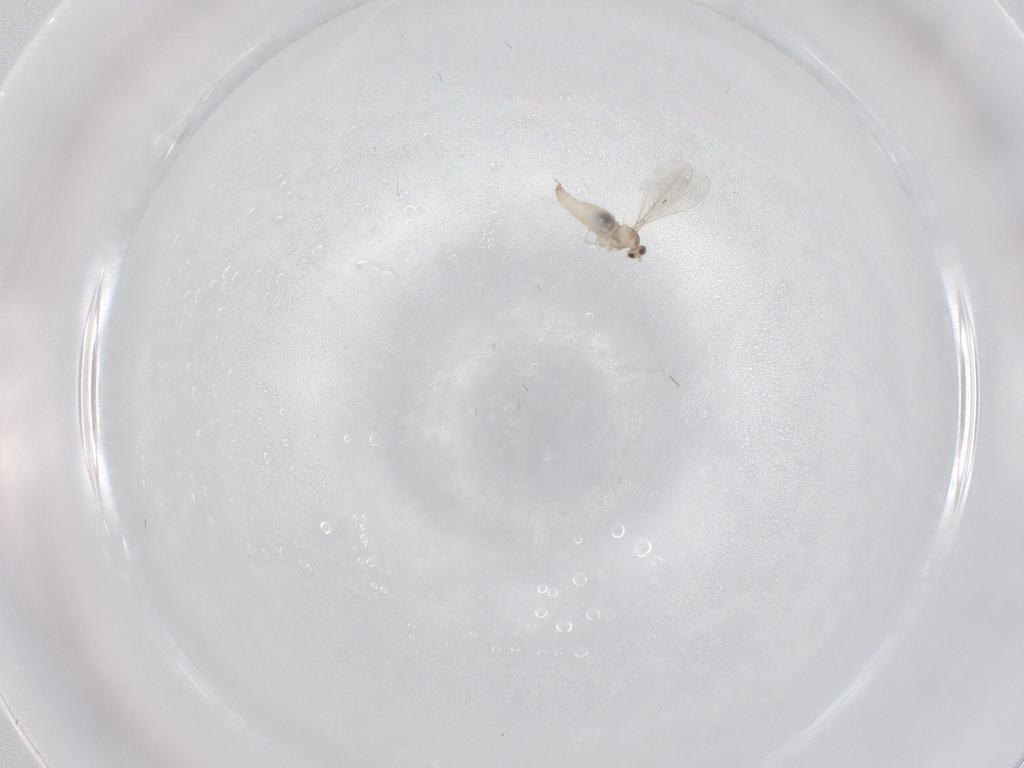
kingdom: Animalia
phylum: Arthropoda
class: Insecta
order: Diptera
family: Cecidomyiidae
